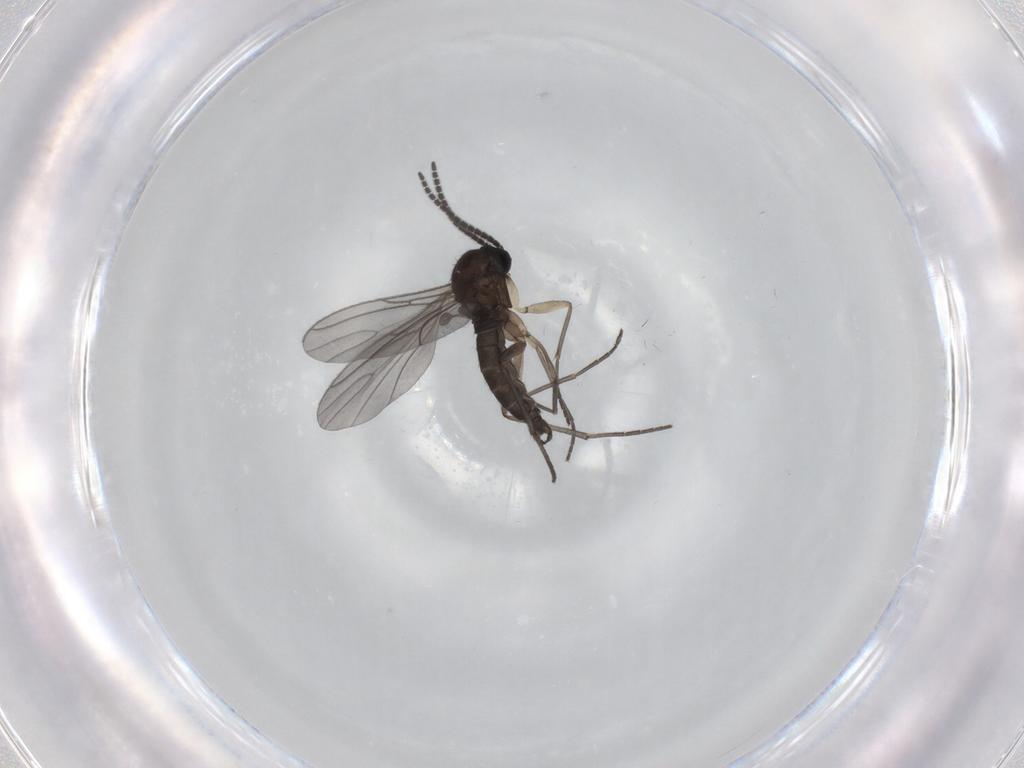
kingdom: Animalia
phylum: Arthropoda
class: Insecta
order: Diptera
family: Sciaridae
